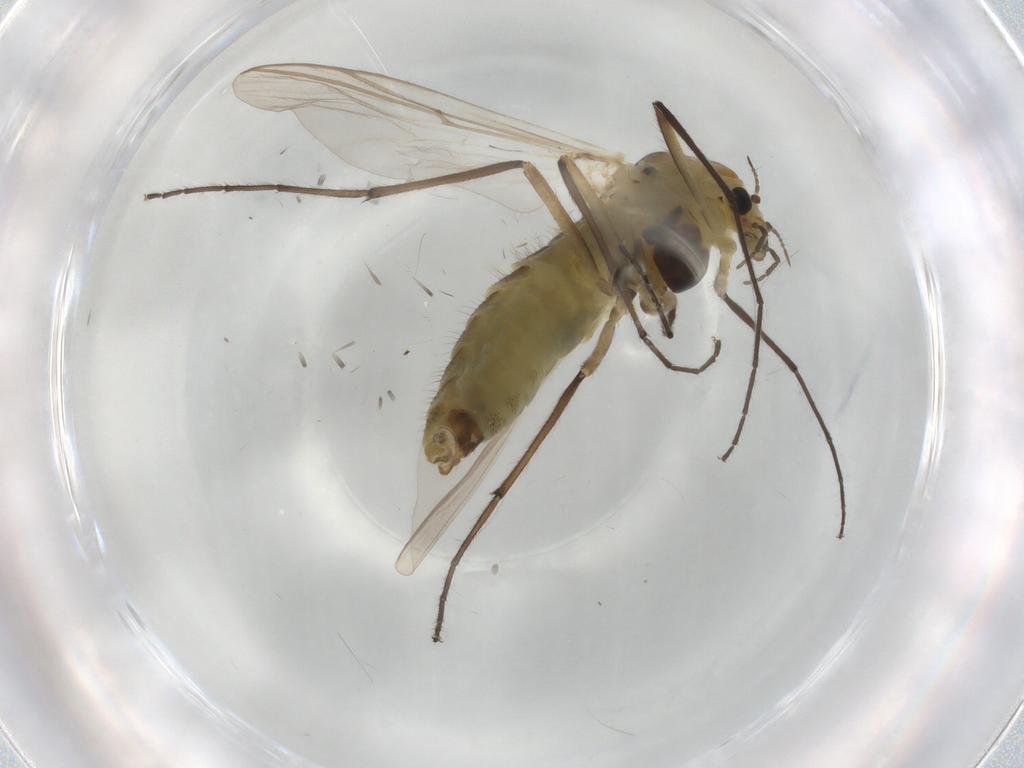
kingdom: Animalia
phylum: Arthropoda
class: Insecta
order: Diptera
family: Chironomidae
